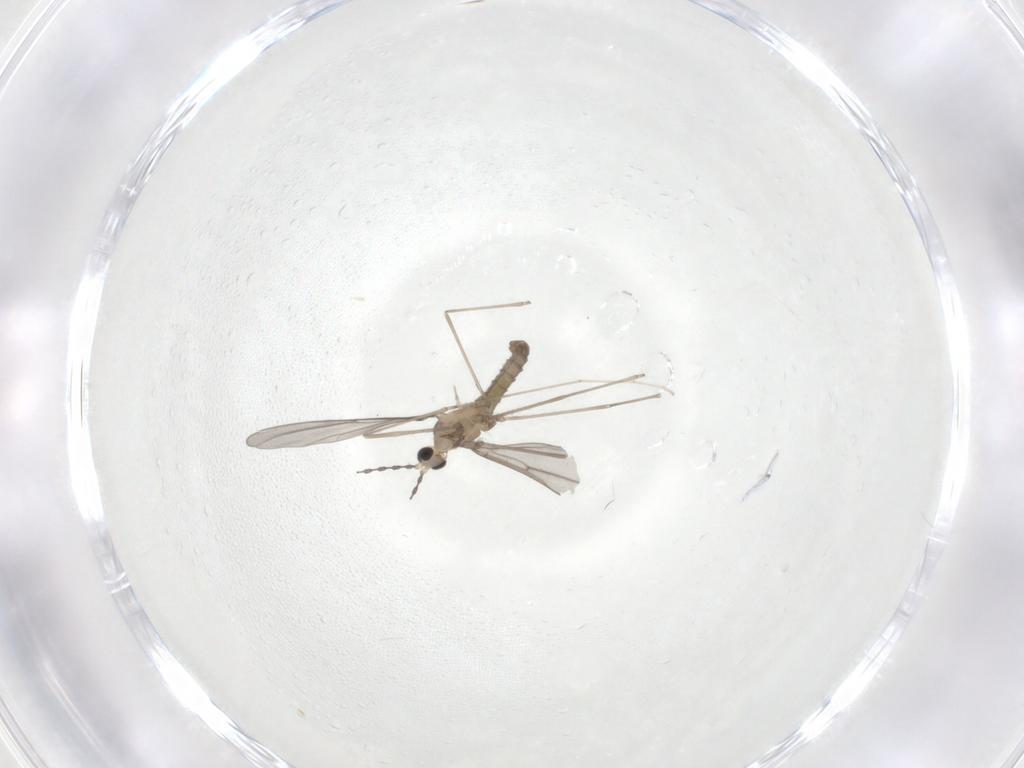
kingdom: Animalia
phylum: Arthropoda
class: Insecta
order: Diptera
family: Cecidomyiidae
